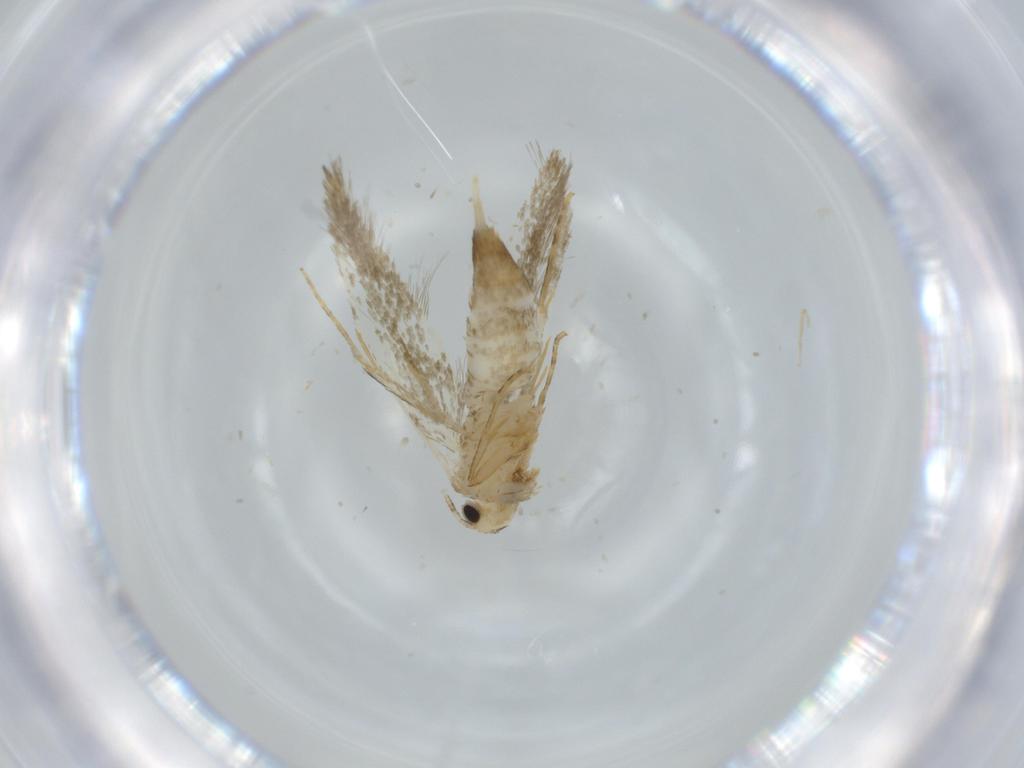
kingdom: Animalia
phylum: Arthropoda
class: Insecta
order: Lepidoptera
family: Tineidae
